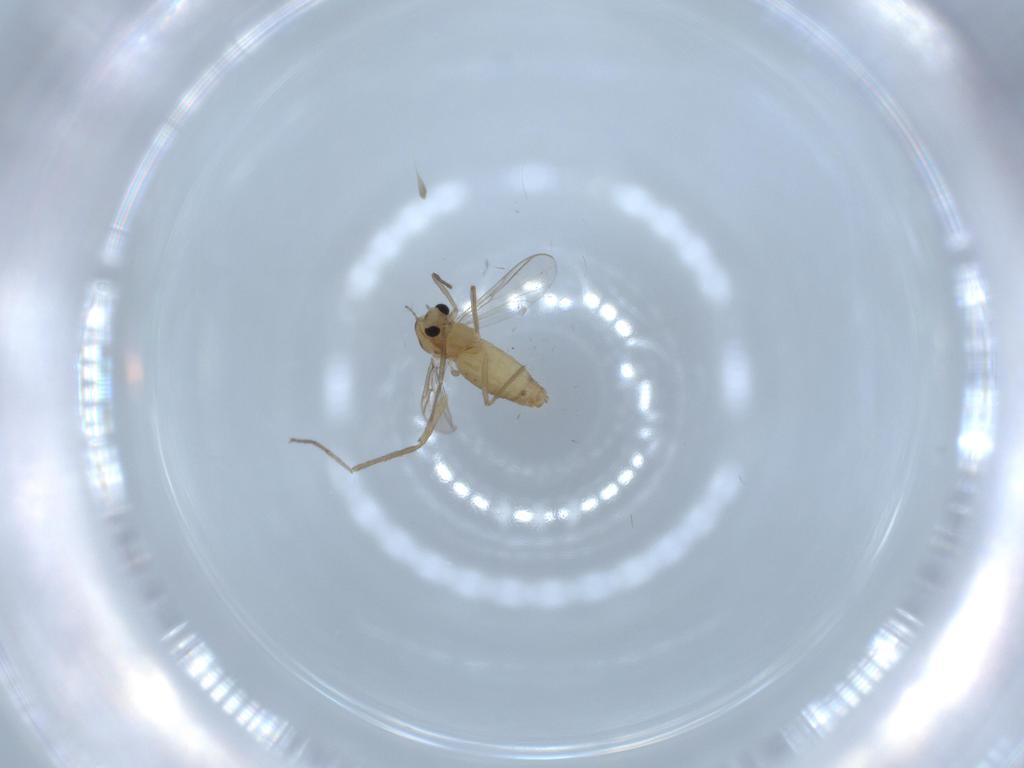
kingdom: Animalia
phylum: Arthropoda
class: Insecta
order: Diptera
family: Chironomidae
